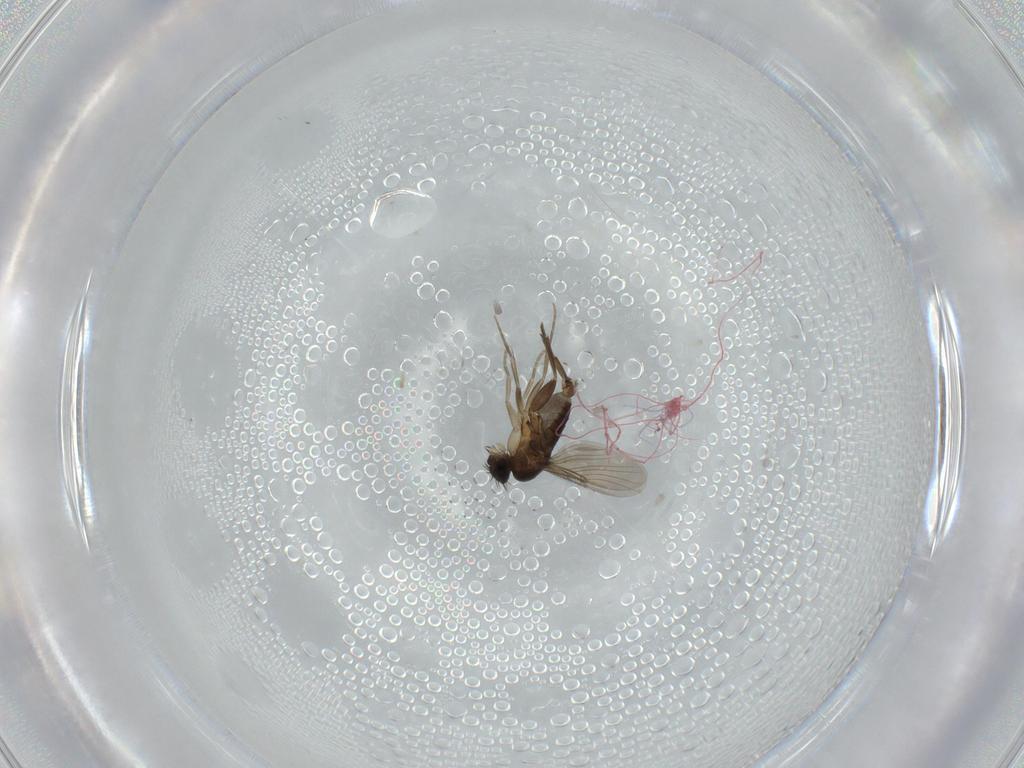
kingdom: Animalia
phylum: Arthropoda
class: Insecta
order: Diptera
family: Phoridae
